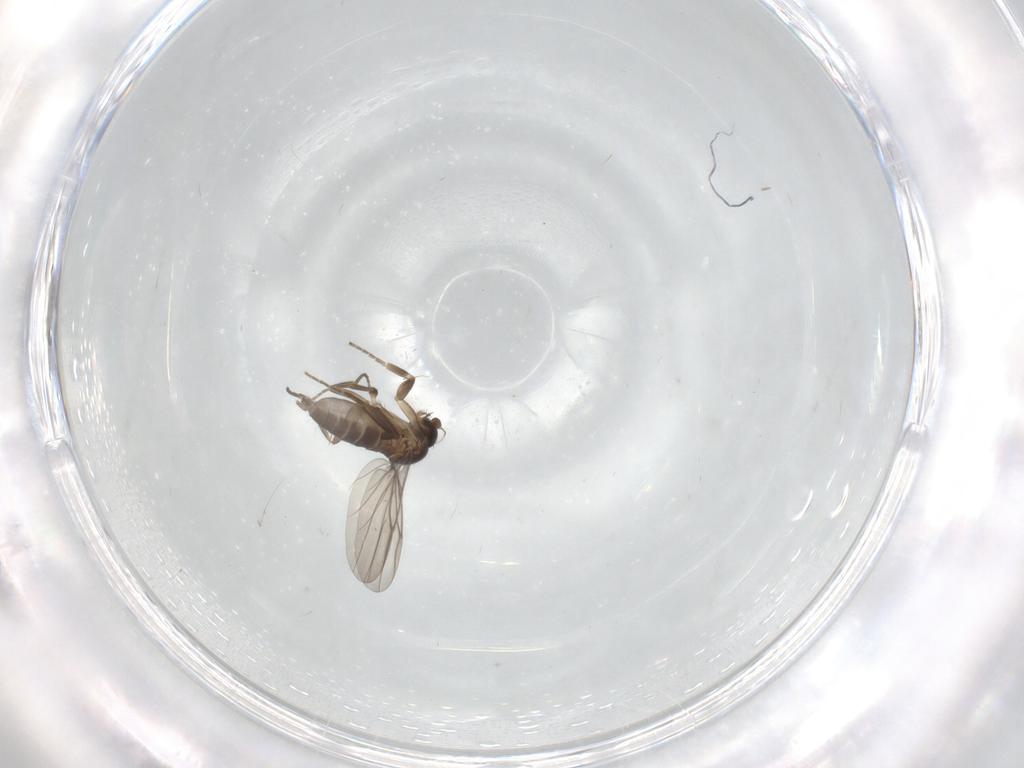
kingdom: Animalia
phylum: Arthropoda
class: Insecta
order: Diptera
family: Phoridae
